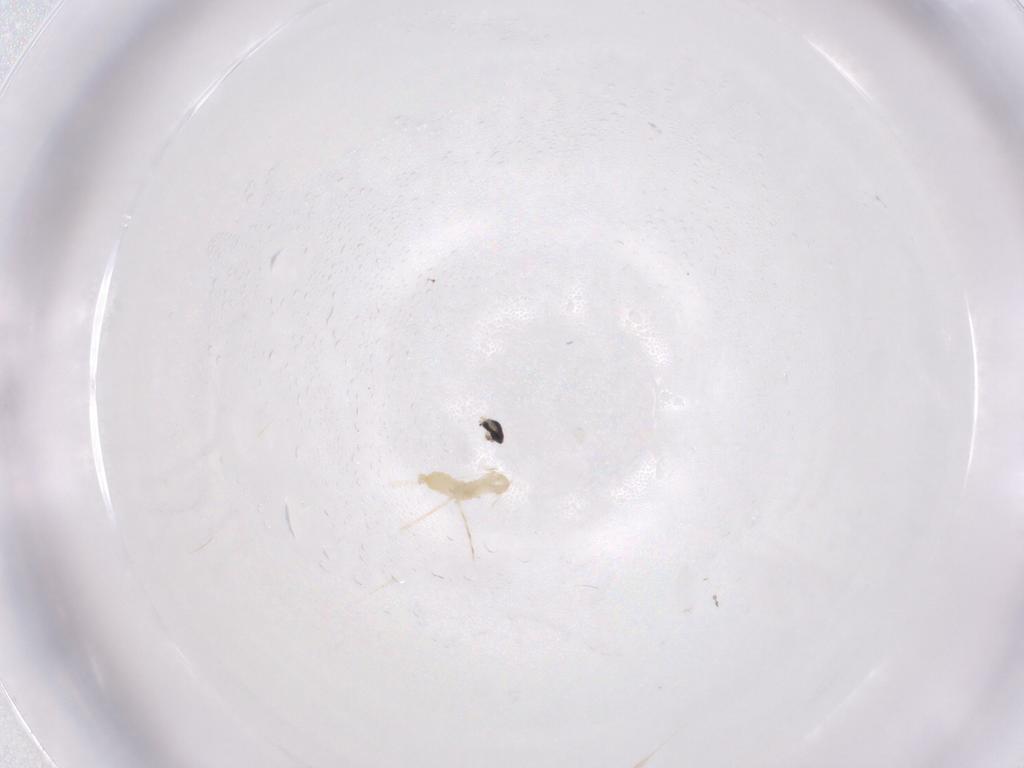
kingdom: Animalia
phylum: Arthropoda
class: Insecta
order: Diptera
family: Cecidomyiidae
